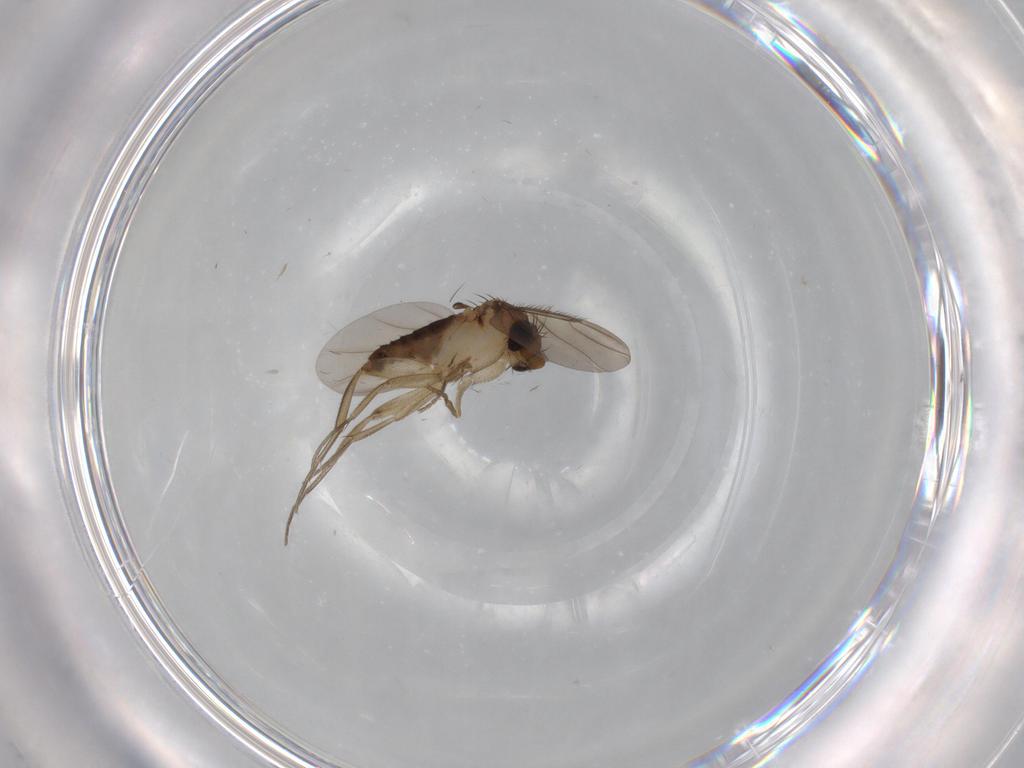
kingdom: Animalia
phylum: Arthropoda
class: Insecta
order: Diptera
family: Phoridae
